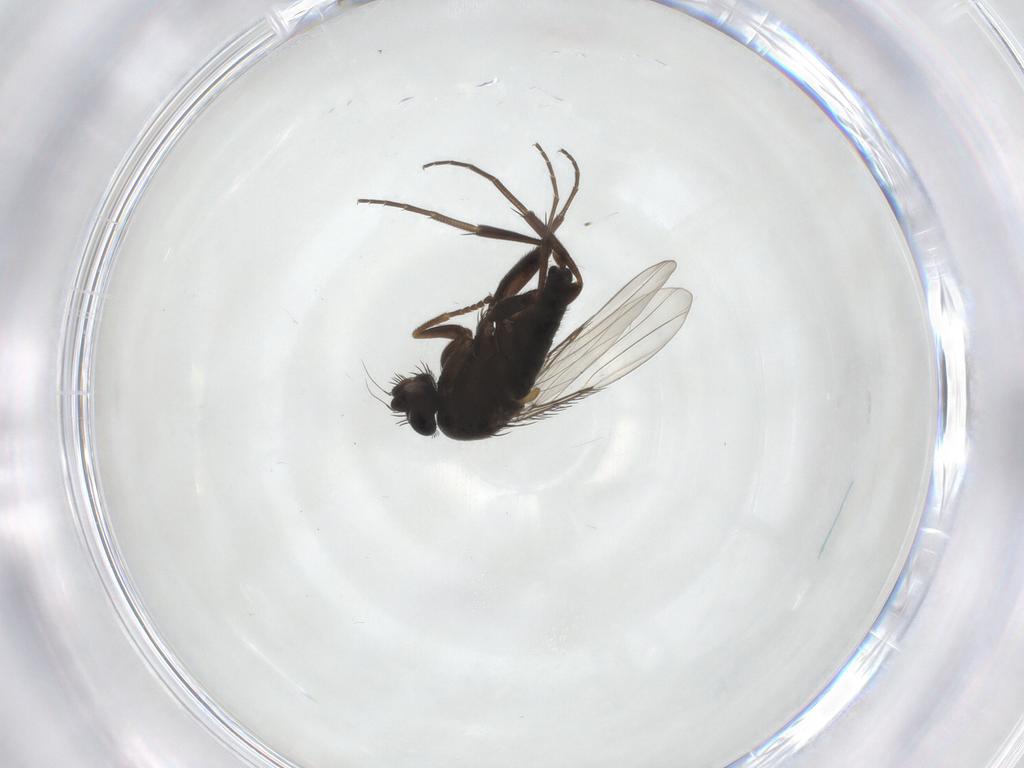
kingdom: Animalia
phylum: Arthropoda
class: Insecta
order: Diptera
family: Phoridae
